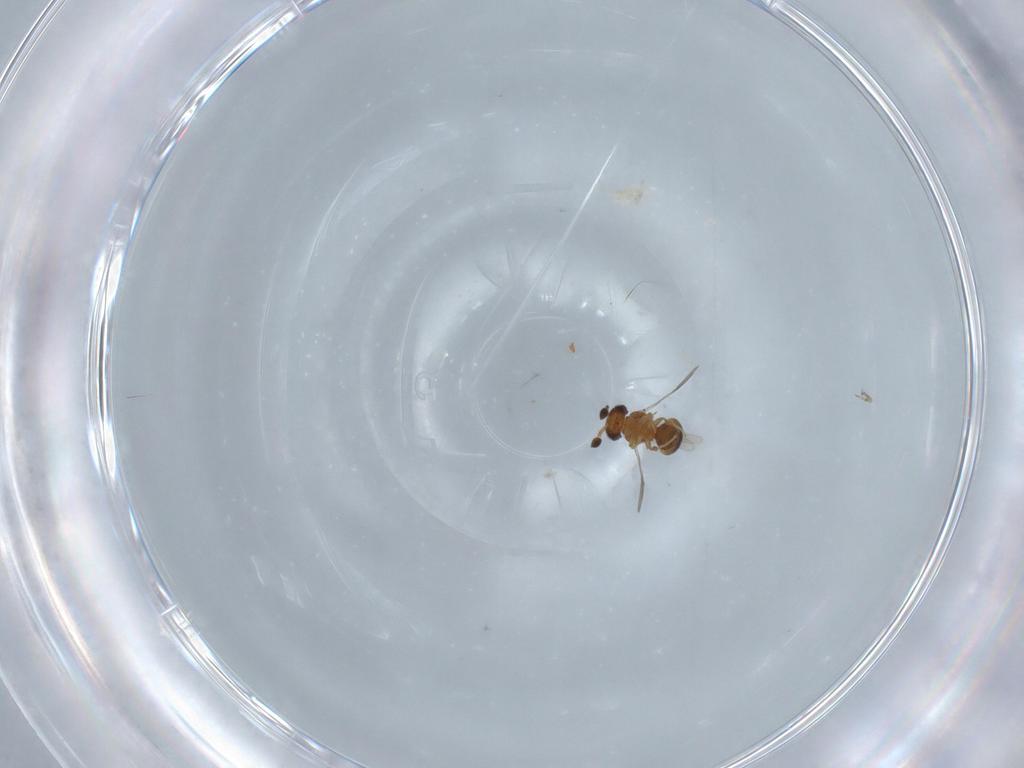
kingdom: Animalia
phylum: Arthropoda
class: Insecta
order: Hymenoptera
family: Scelionidae
